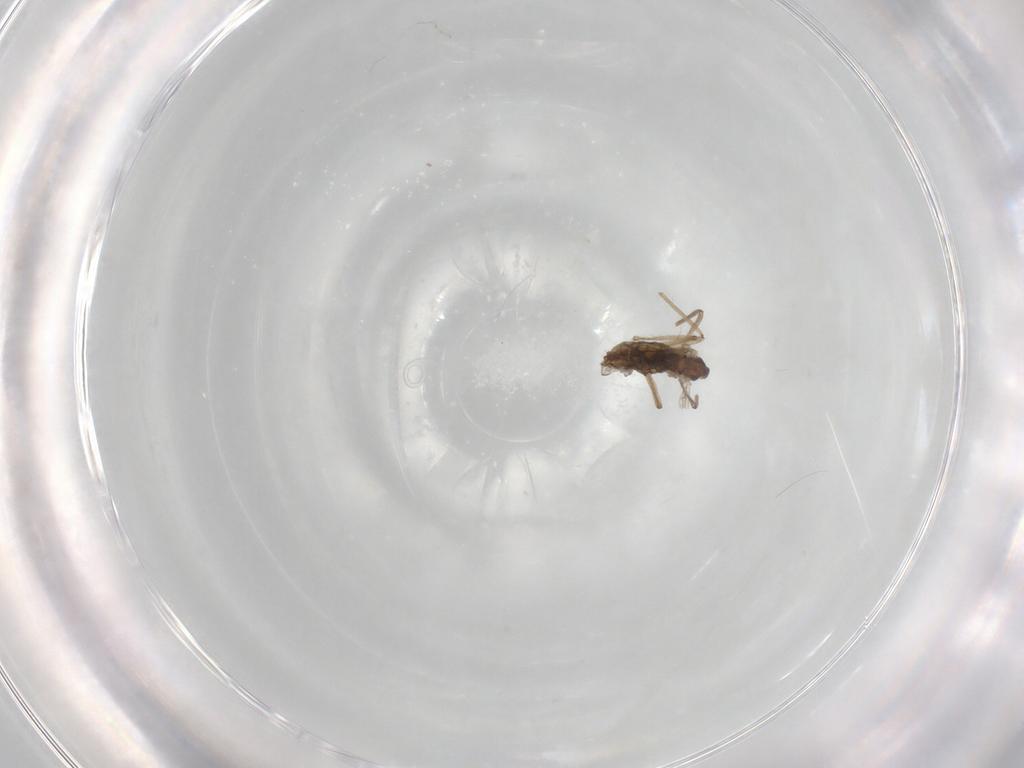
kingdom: Animalia
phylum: Arthropoda
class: Insecta
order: Diptera
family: Chironomidae
